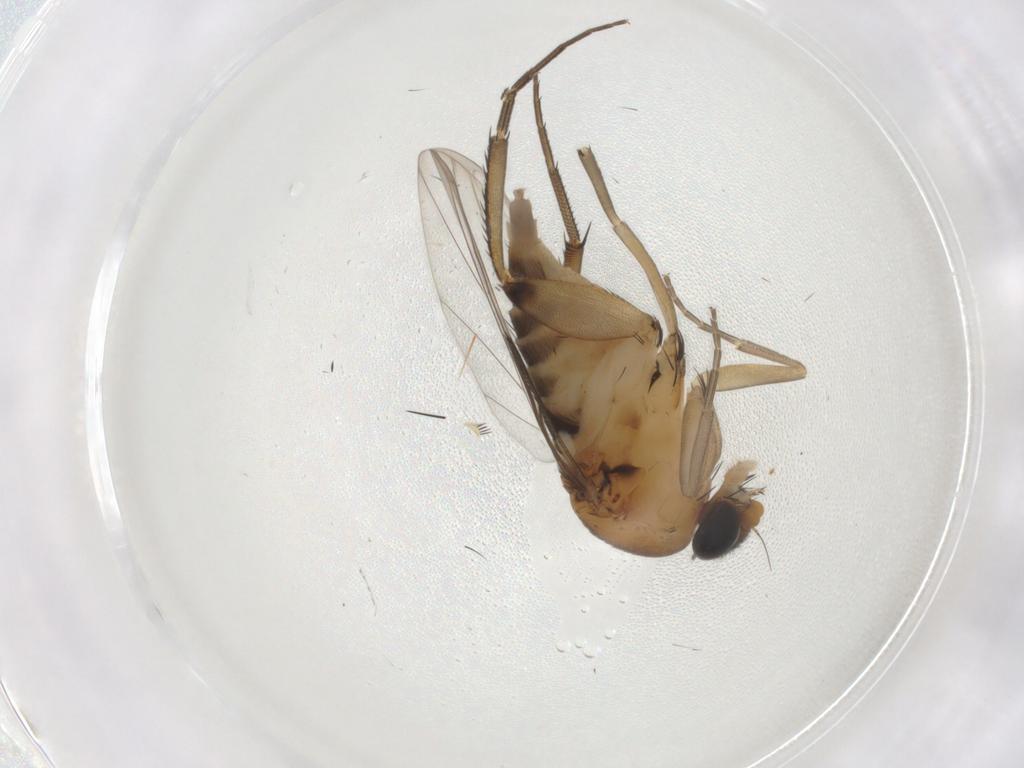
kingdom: Animalia
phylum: Arthropoda
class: Insecta
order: Diptera
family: Phoridae
